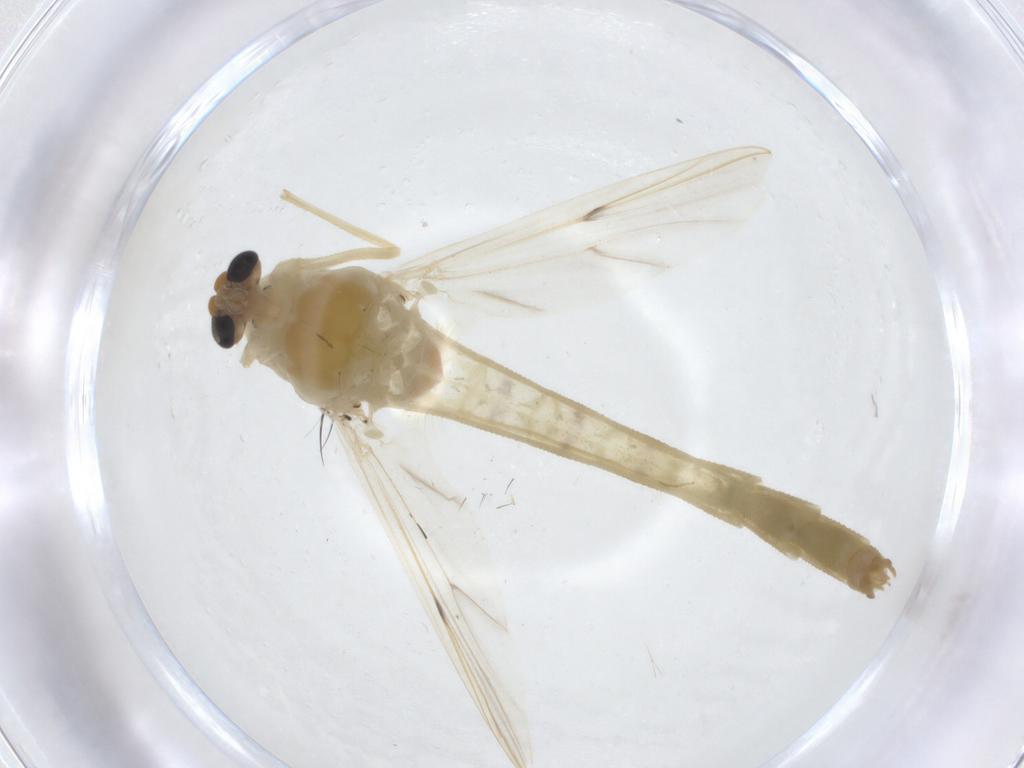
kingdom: Animalia
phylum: Arthropoda
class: Insecta
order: Diptera
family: Chironomidae
